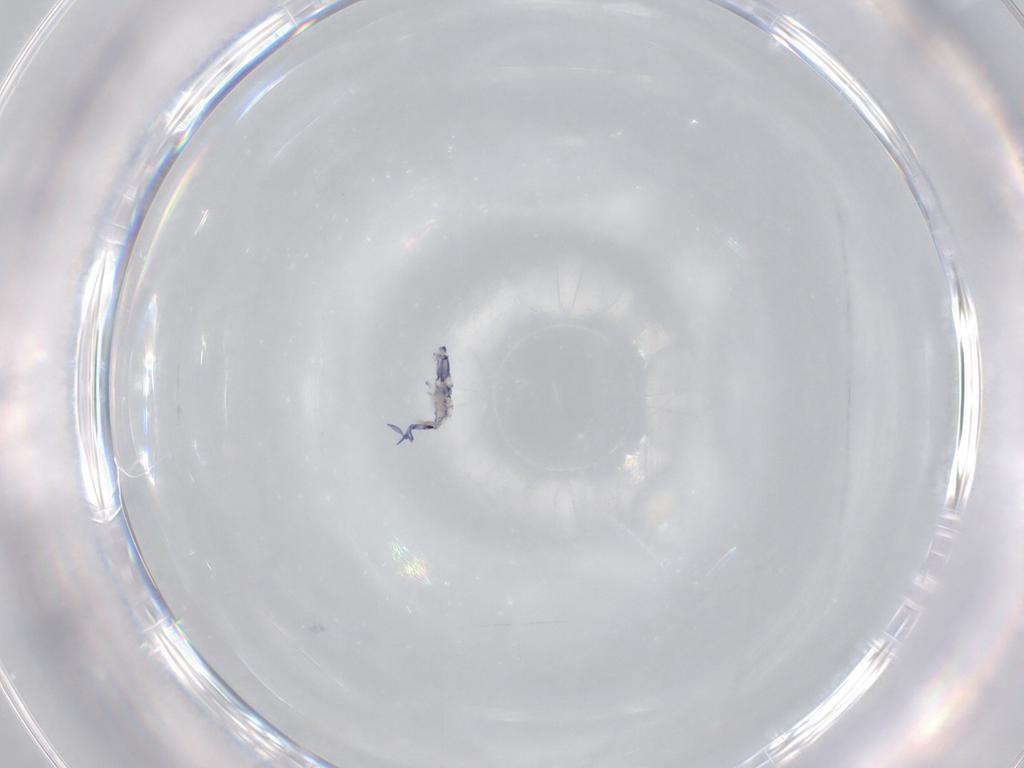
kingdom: Animalia
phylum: Arthropoda
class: Collembola
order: Entomobryomorpha
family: Entomobryidae
